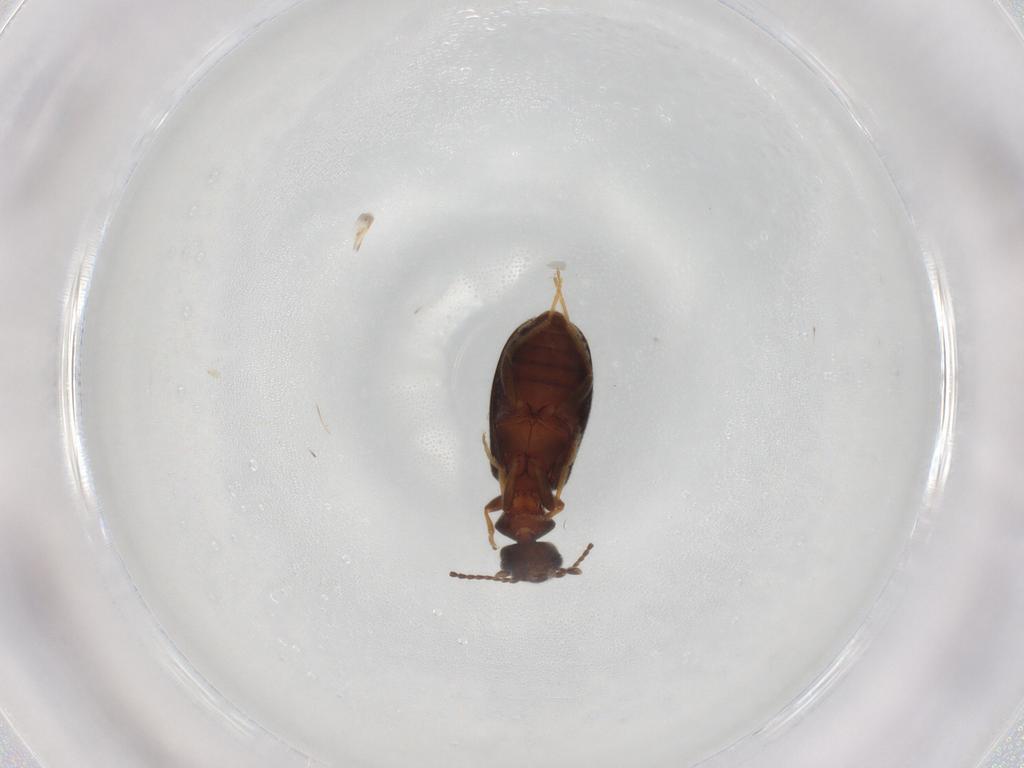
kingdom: Animalia
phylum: Arthropoda
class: Insecta
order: Coleoptera
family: Anthicidae
